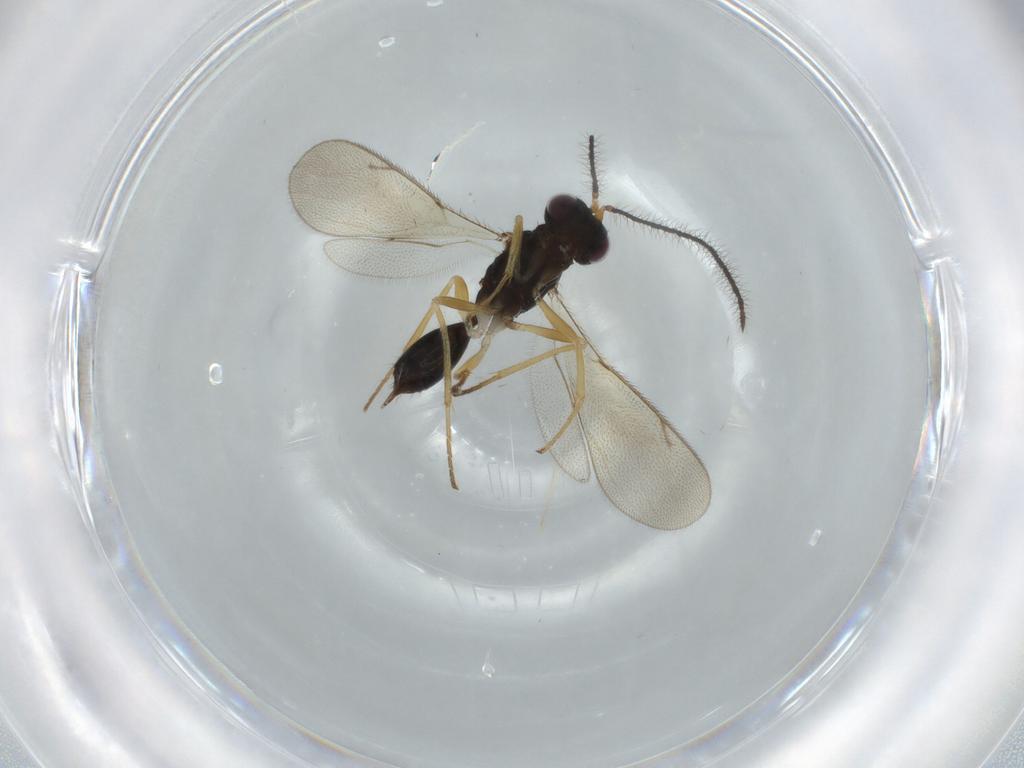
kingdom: Animalia
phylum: Arthropoda
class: Insecta
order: Hymenoptera
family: Diparidae
